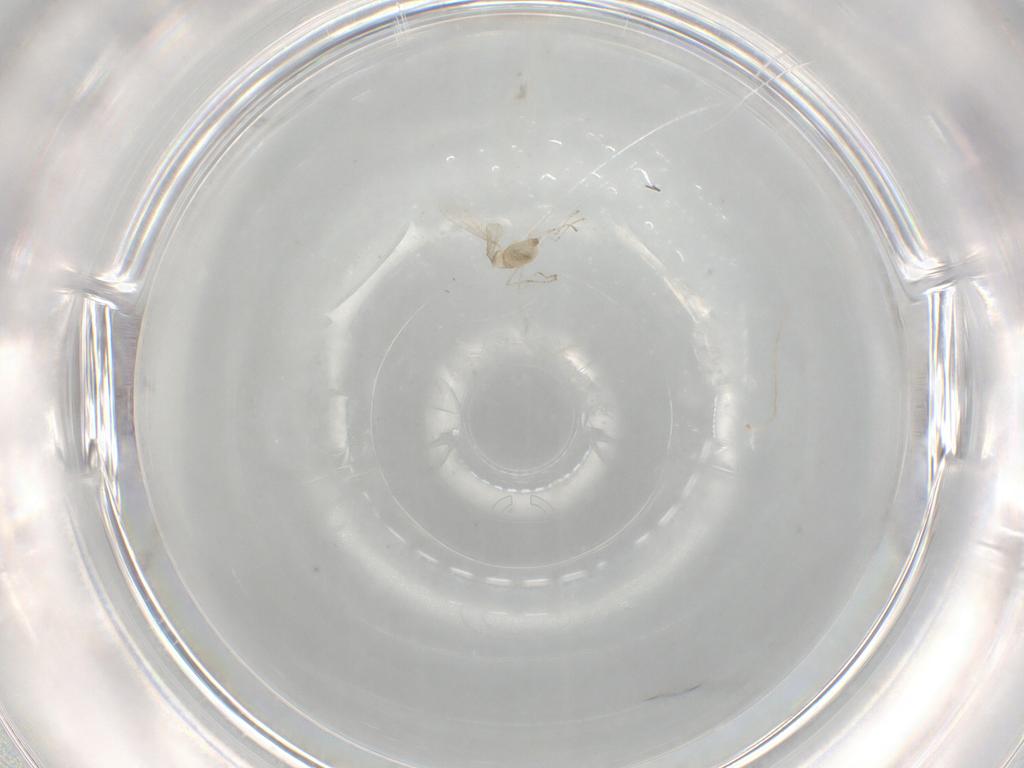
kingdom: Animalia
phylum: Arthropoda
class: Insecta
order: Diptera
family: Cecidomyiidae
